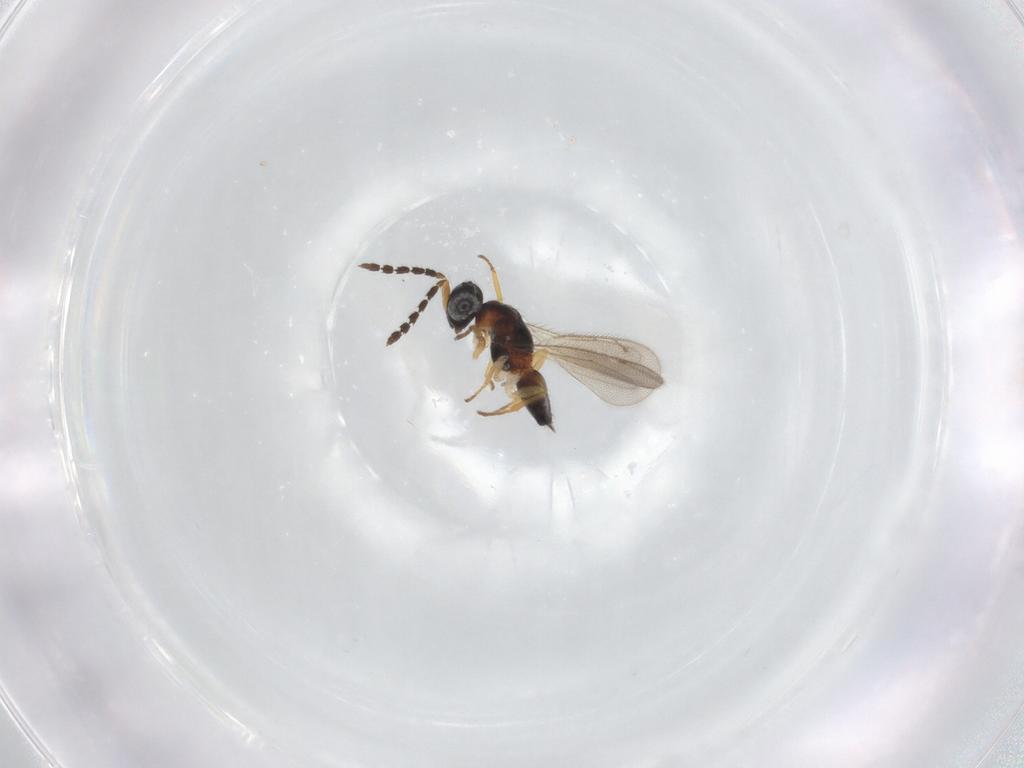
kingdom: Animalia
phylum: Arthropoda
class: Insecta
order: Hymenoptera
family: Eulophidae
